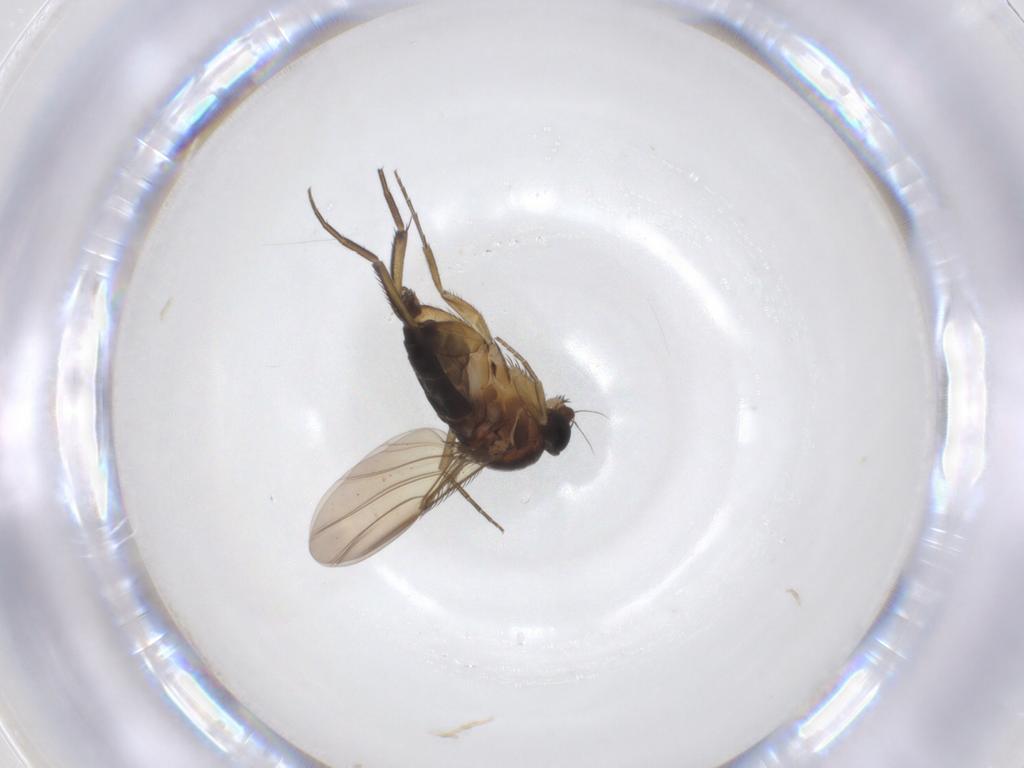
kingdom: Animalia
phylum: Arthropoda
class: Insecta
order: Diptera
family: Phoridae
